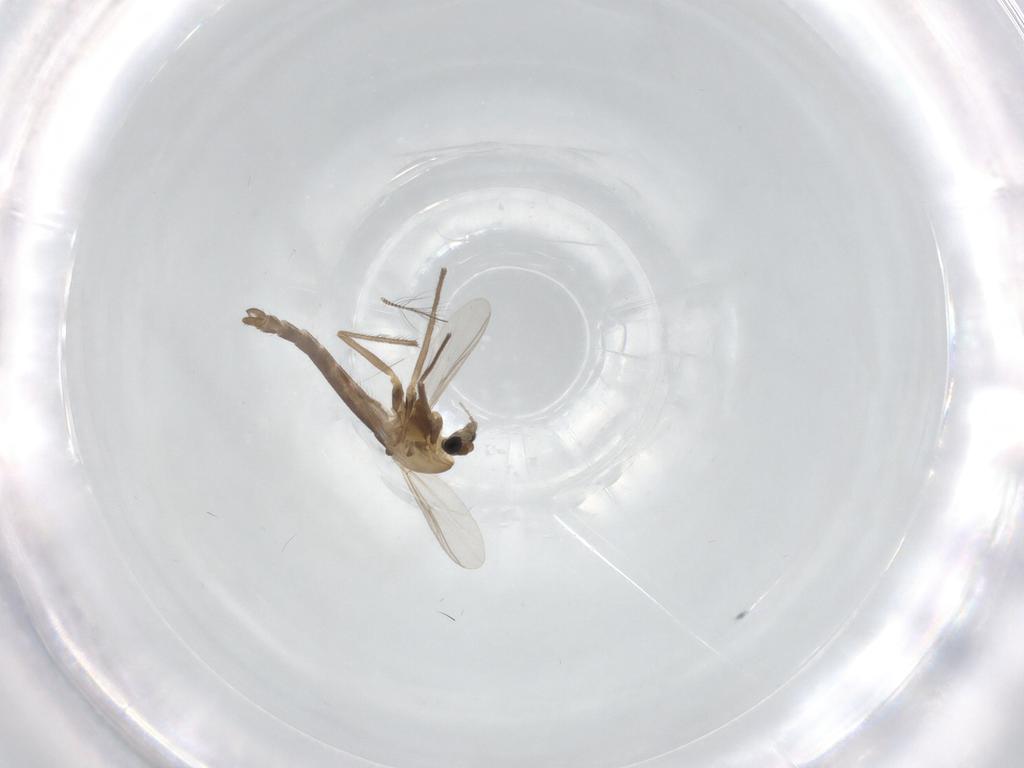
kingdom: Animalia
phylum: Arthropoda
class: Insecta
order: Diptera
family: Chironomidae
